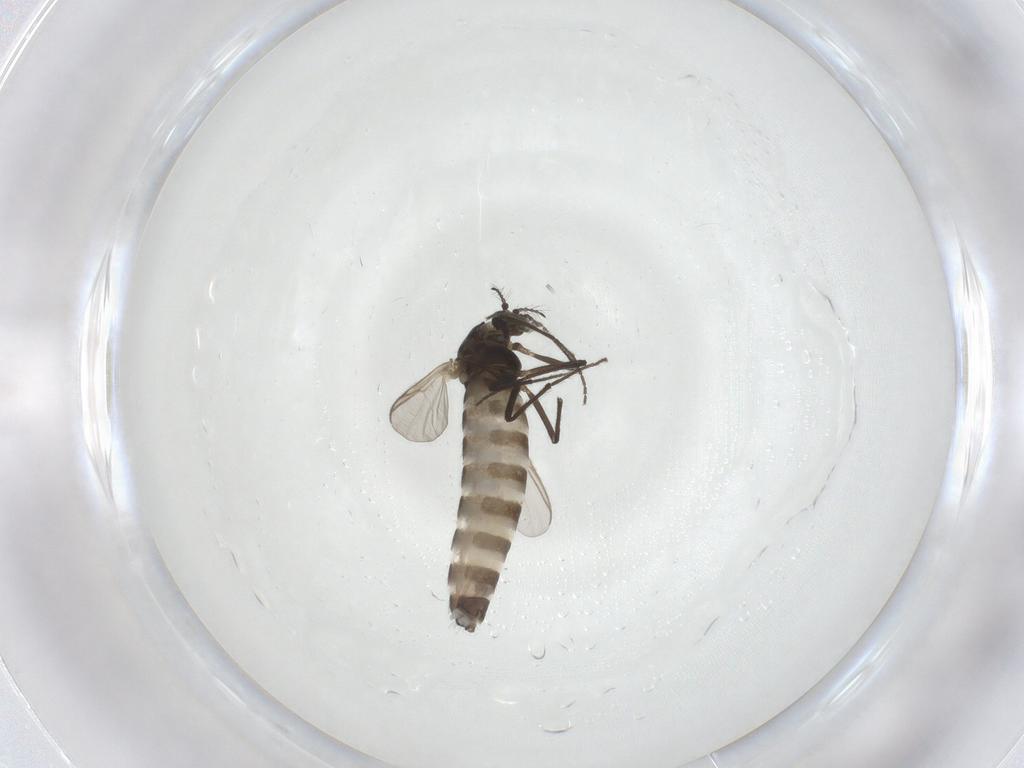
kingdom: Animalia
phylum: Arthropoda
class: Insecta
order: Diptera
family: Chironomidae
